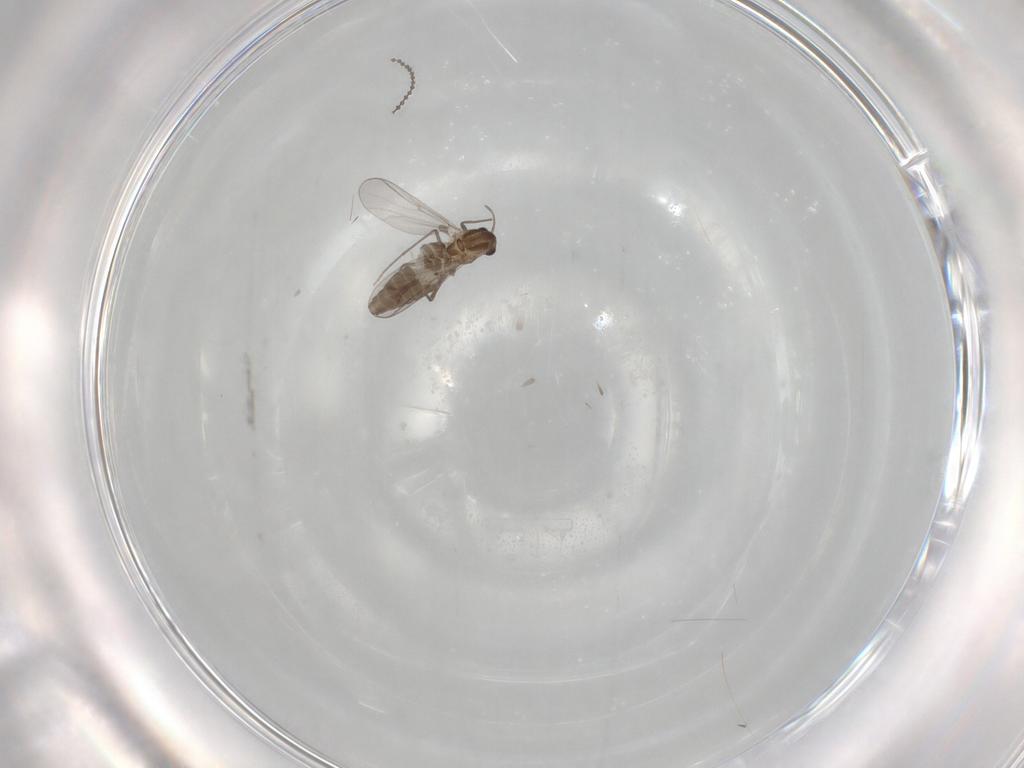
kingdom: Animalia
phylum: Arthropoda
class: Insecta
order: Diptera
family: Chironomidae
